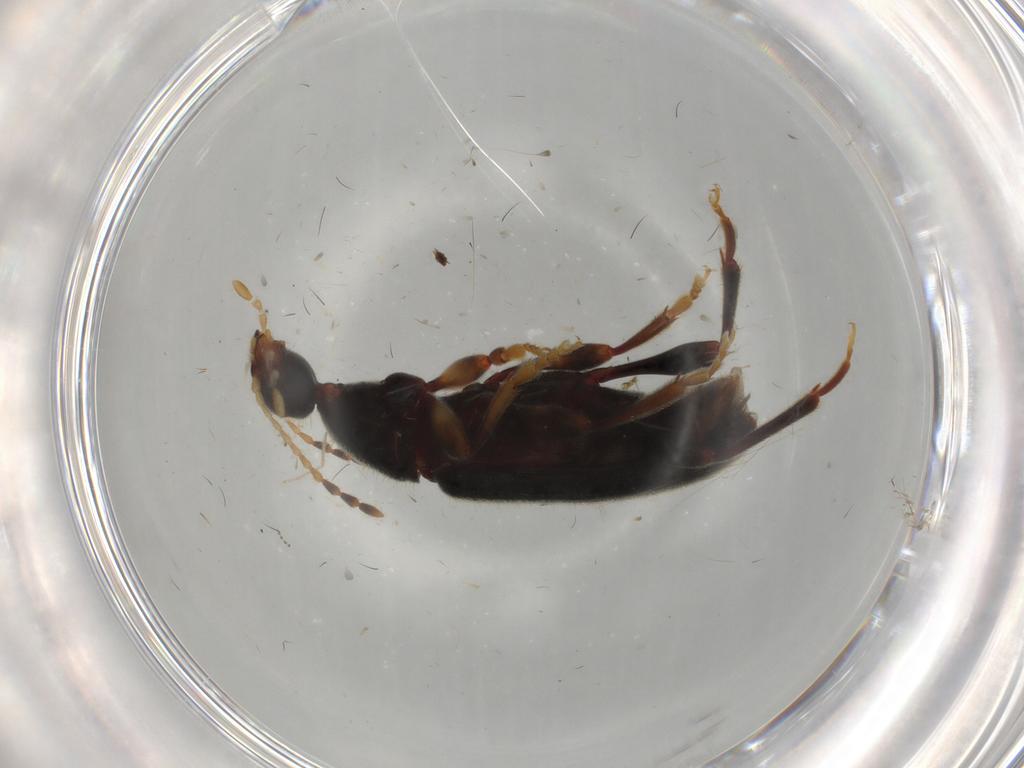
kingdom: Animalia
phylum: Arthropoda
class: Insecta
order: Coleoptera
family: Anthicidae
